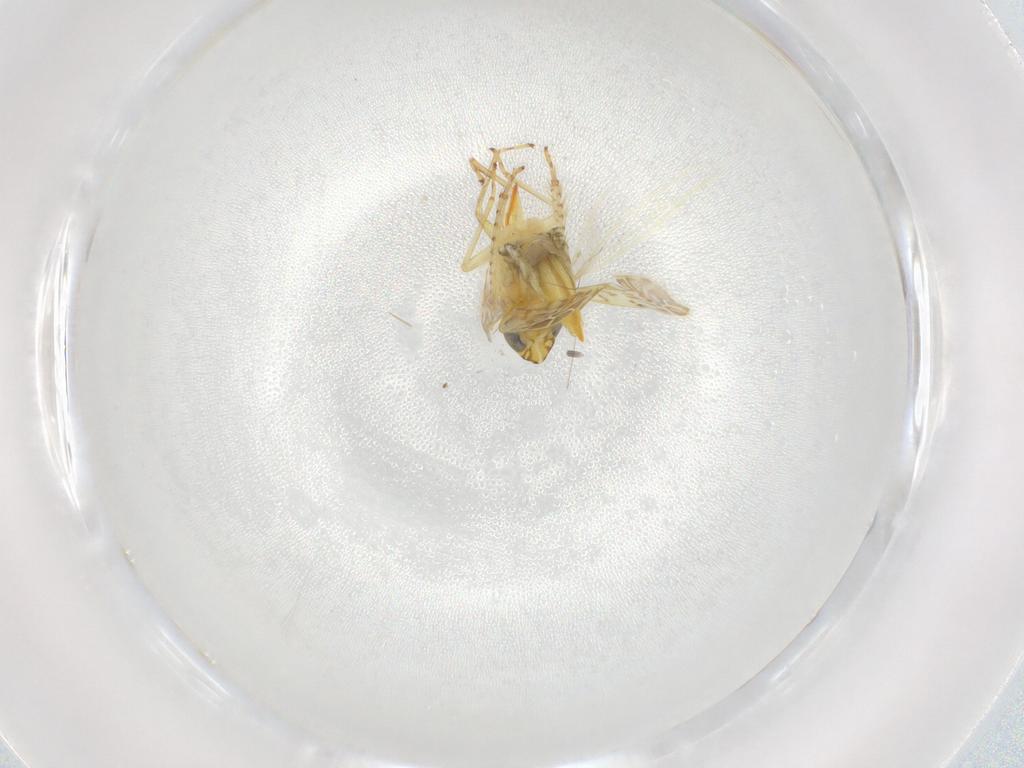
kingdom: Animalia
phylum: Arthropoda
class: Insecta
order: Hemiptera
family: Cicadellidae
